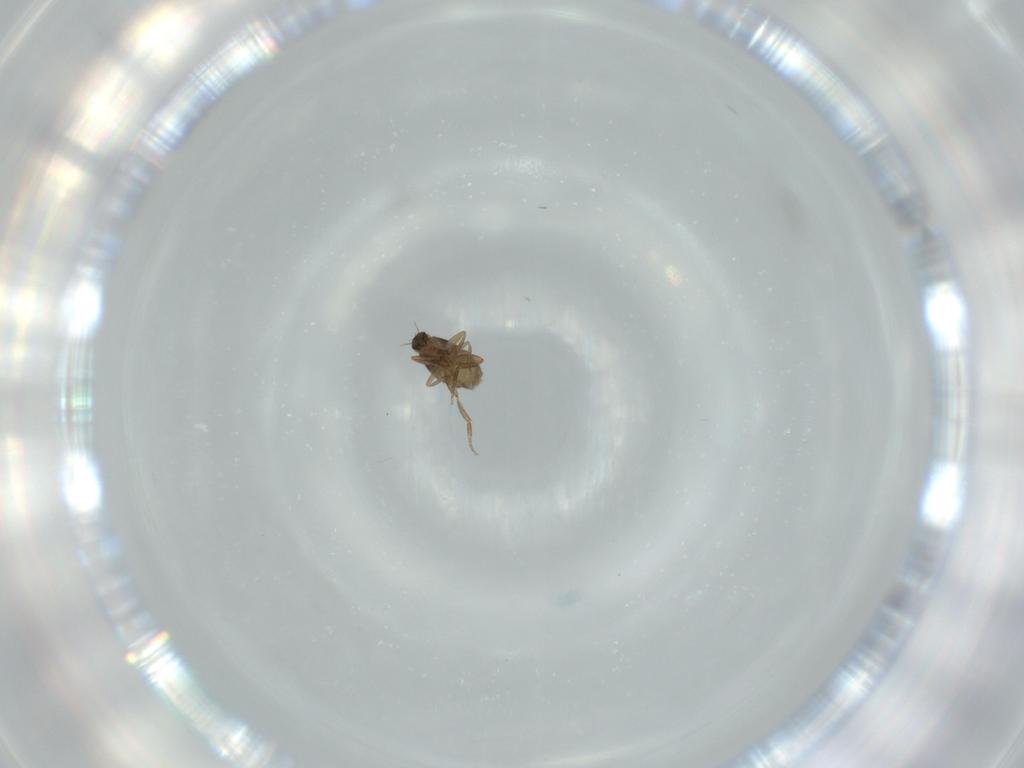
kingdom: Animalia
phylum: Arthropoda
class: Insecta
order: Diptera
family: Phoridae
